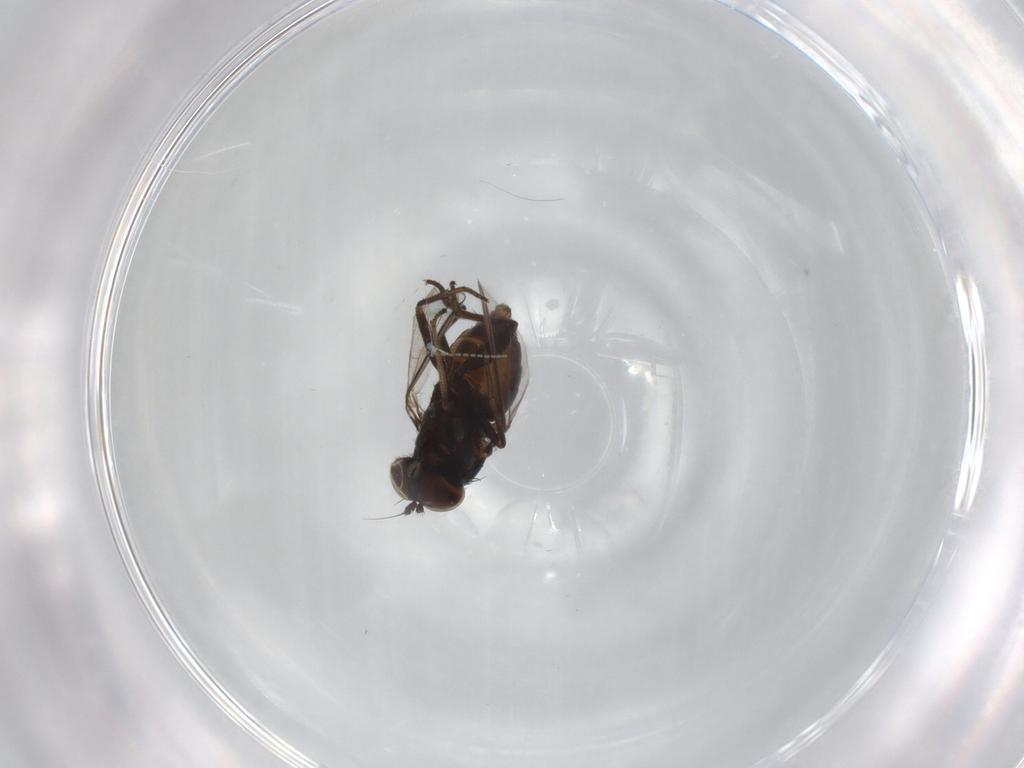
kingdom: Animalia
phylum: Arthropoda
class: Insecta
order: Diptera
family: Dolichopodidae
